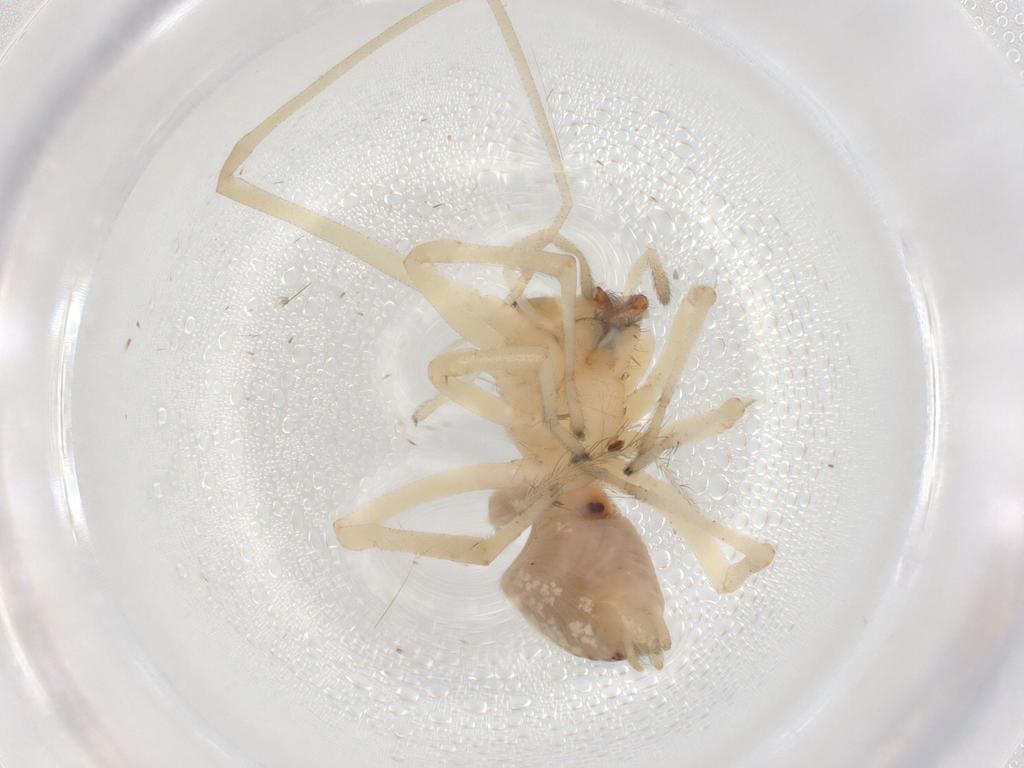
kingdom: Animalia
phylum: Arthropoda
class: Arachnida
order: Araneae
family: Cheiracanthiidae
